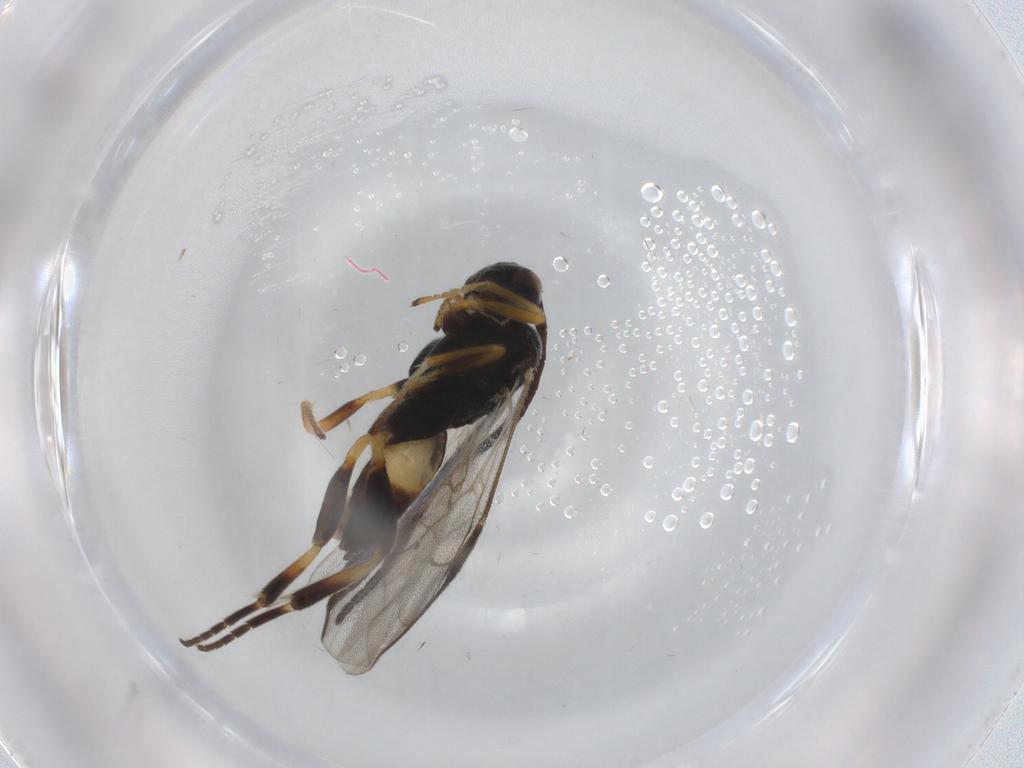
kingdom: Animalia
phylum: Arthropoda
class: Insecta
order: Hymenoptera
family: Braconidae
